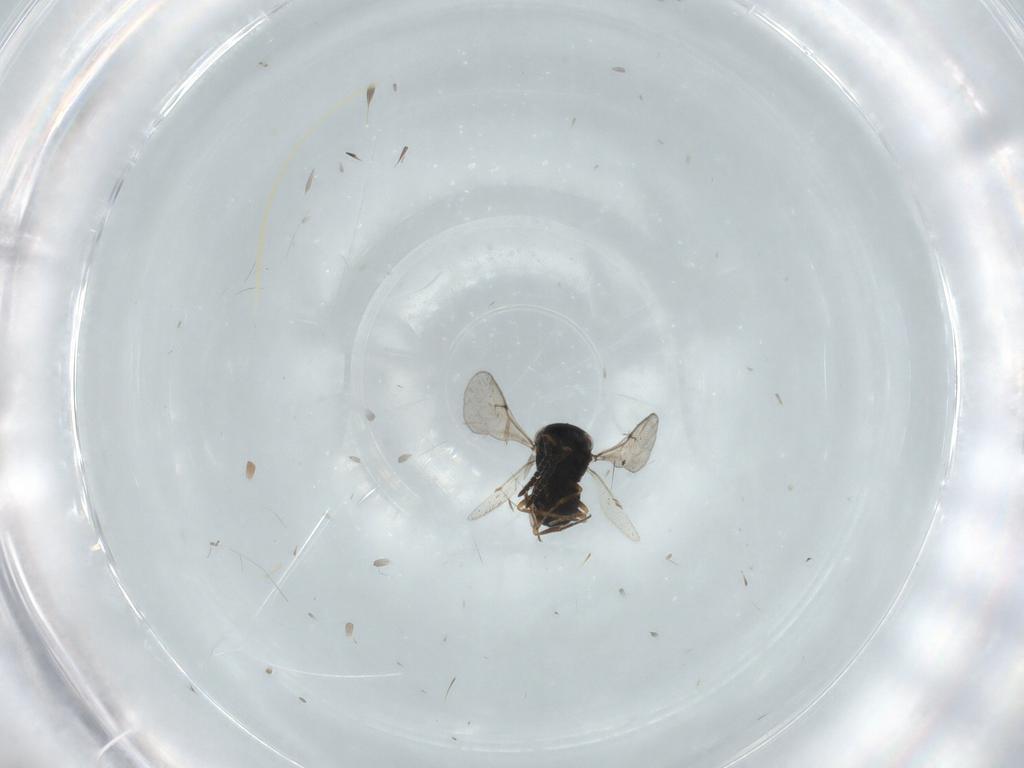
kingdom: Animalia
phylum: Arthropoda
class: Insecta
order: Hymenoptera
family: Scelionidae
